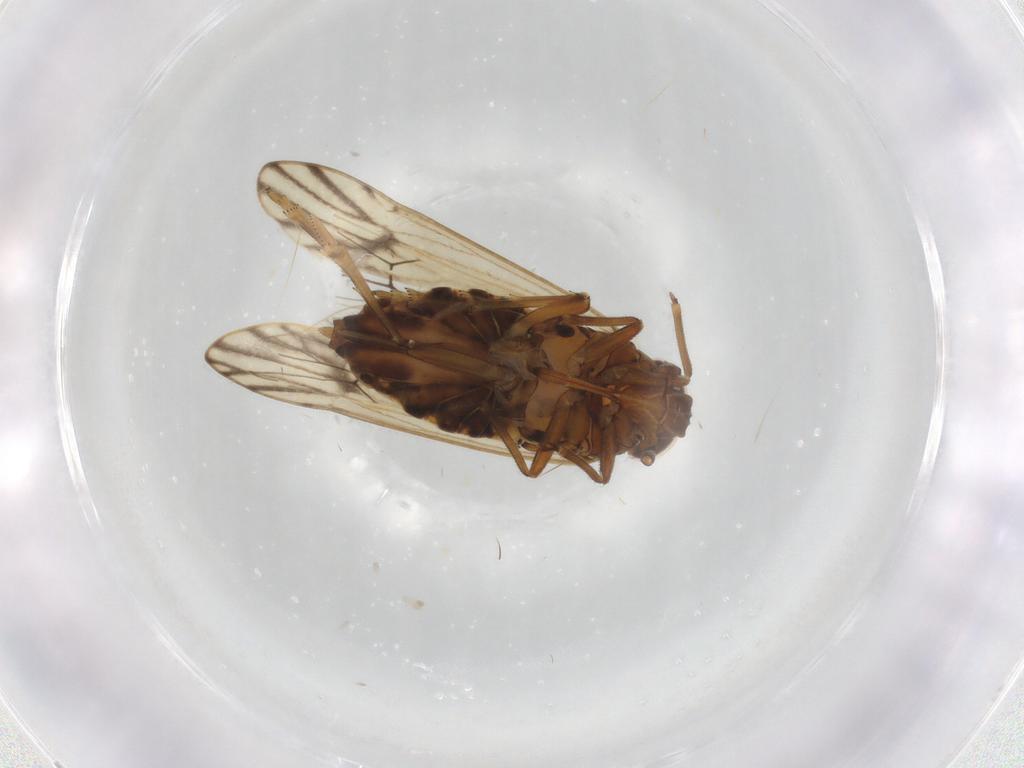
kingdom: Animalia
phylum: Arthropoda
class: Insecta
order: Hemiptera
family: Delphacidae
